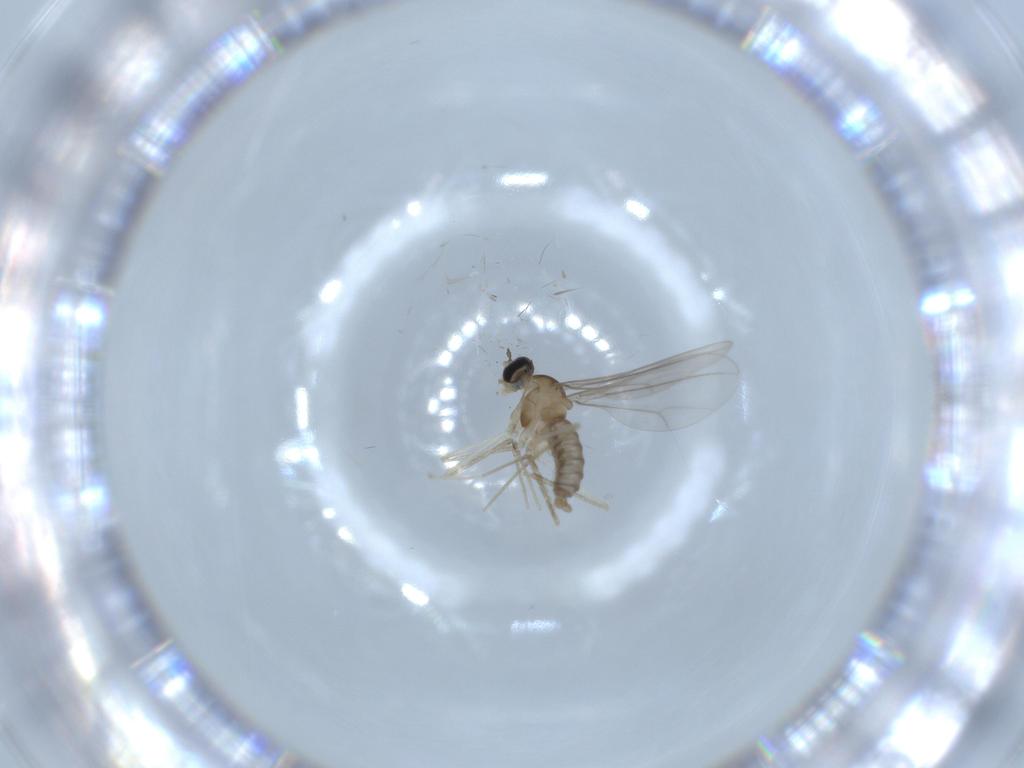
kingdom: Animalia
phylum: Arthropoda
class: Insecta
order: Diptera
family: Cecidomyiidae
